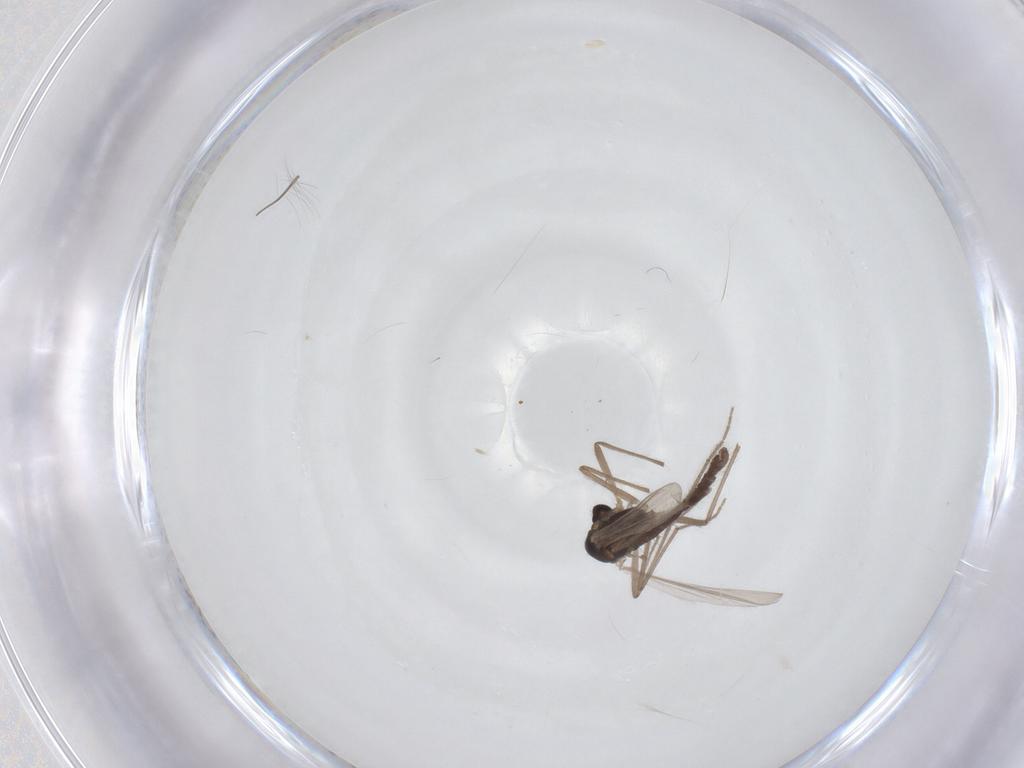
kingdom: Animalia
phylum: Arthropoda
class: Insecta
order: Diptera
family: Chironomidae
